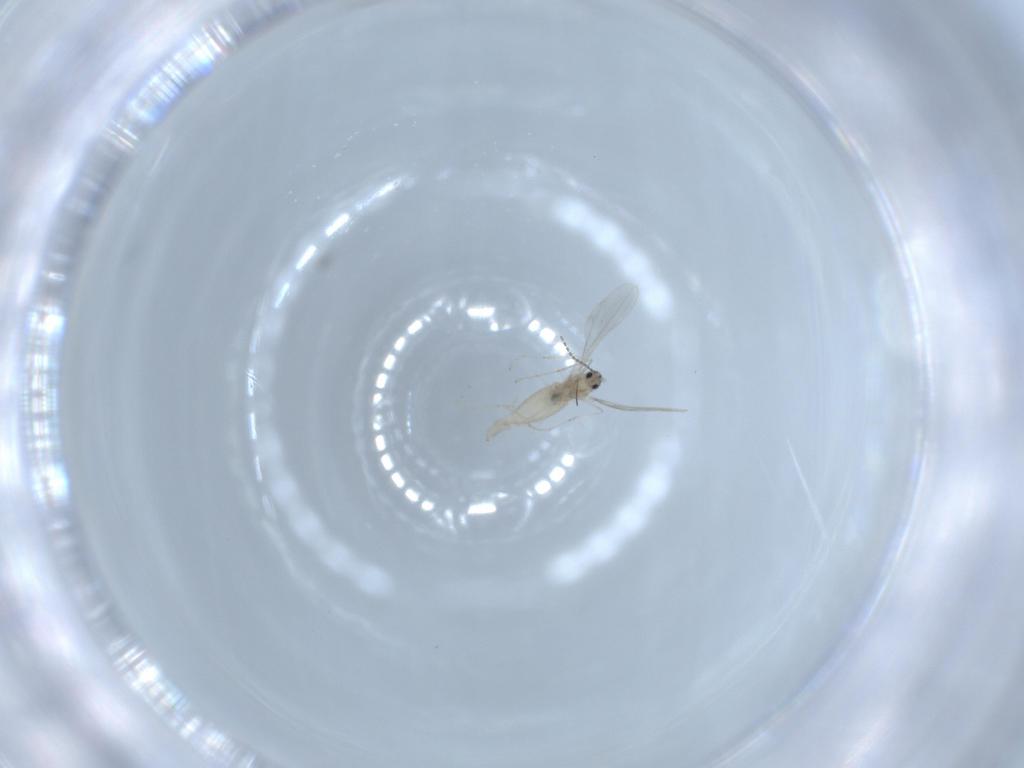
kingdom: Animalia
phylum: Arthropoda
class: Insecta
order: Diptera
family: Cecidomyiidae
